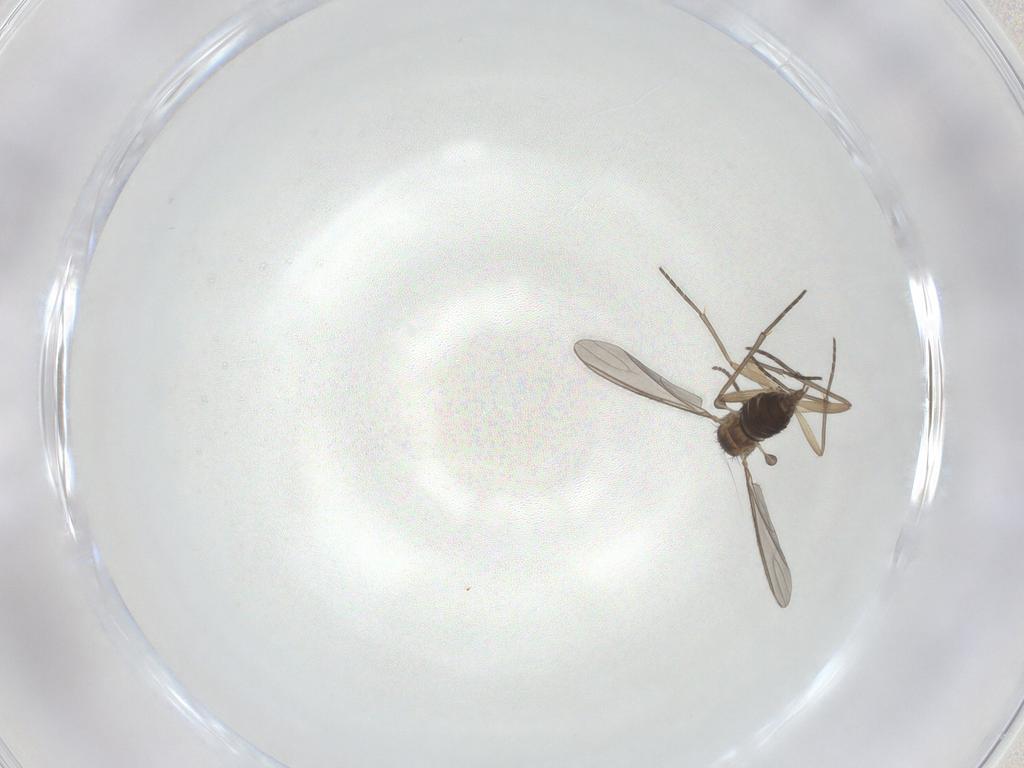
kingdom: Animalia
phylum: Arthropoda
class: Insecta
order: Diptera
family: Sciaridae
